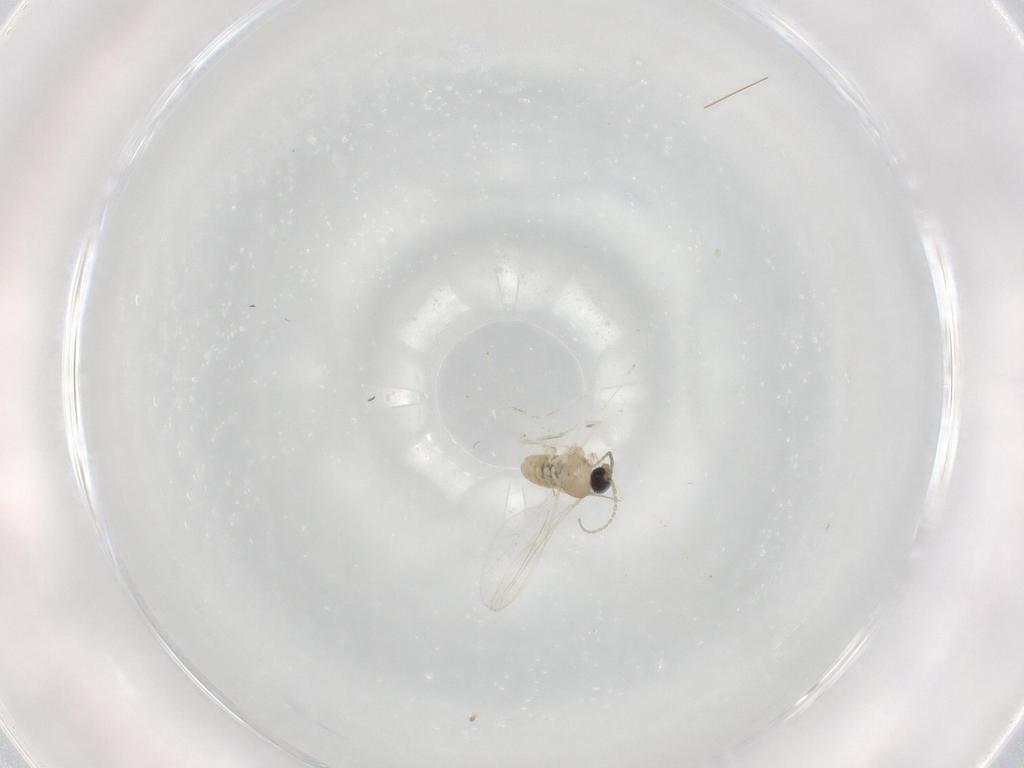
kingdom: Animalia
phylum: Arthropoda
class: Insecta
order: Diptera
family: Cecidomyiidae
